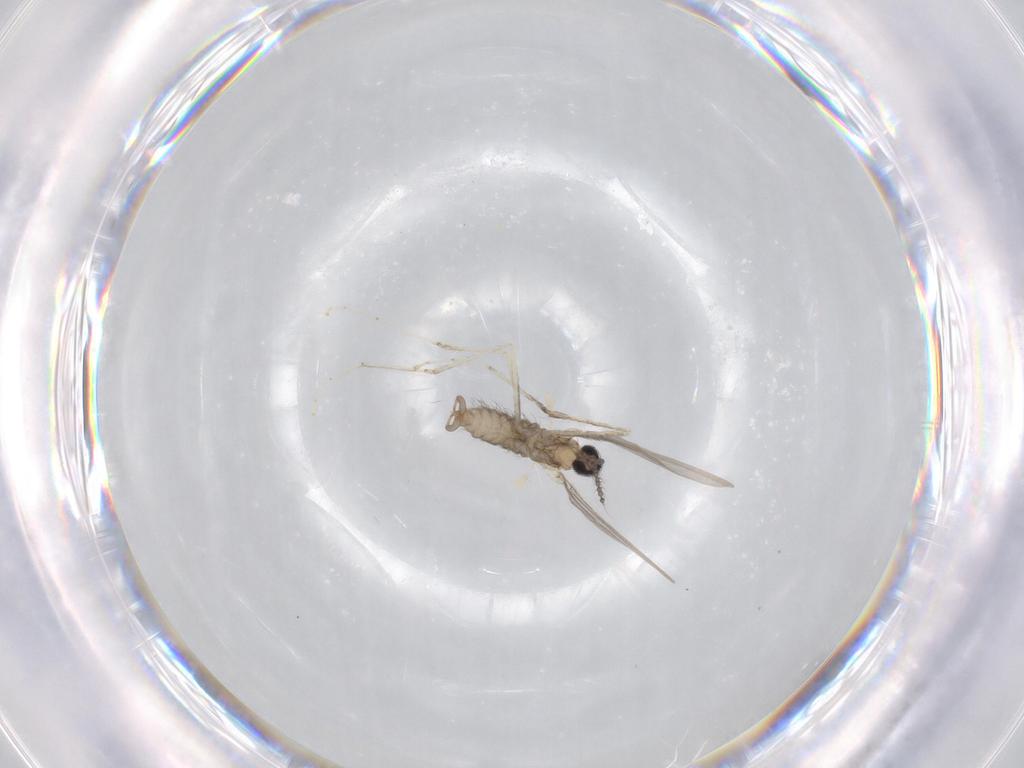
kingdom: Animalia
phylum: Arthropoda
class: Insecta
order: Diptera
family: Cecidomyiidae
